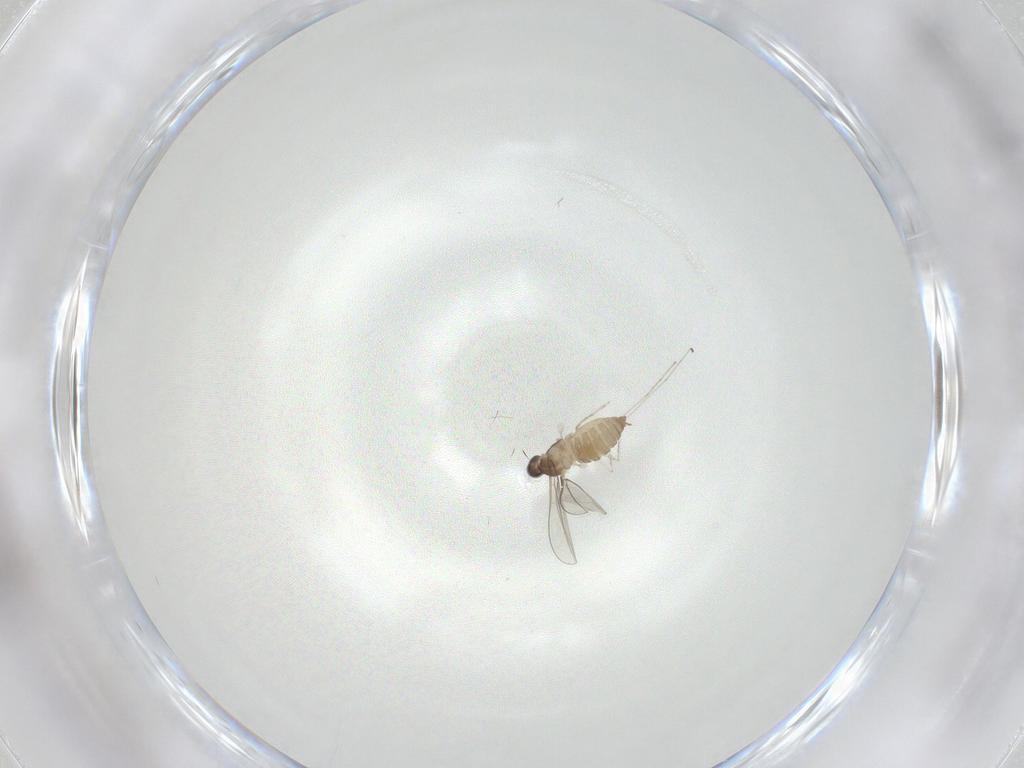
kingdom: Animalia
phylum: Arthropoda
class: Insecta
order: Diptera
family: Cecidomyiidae
